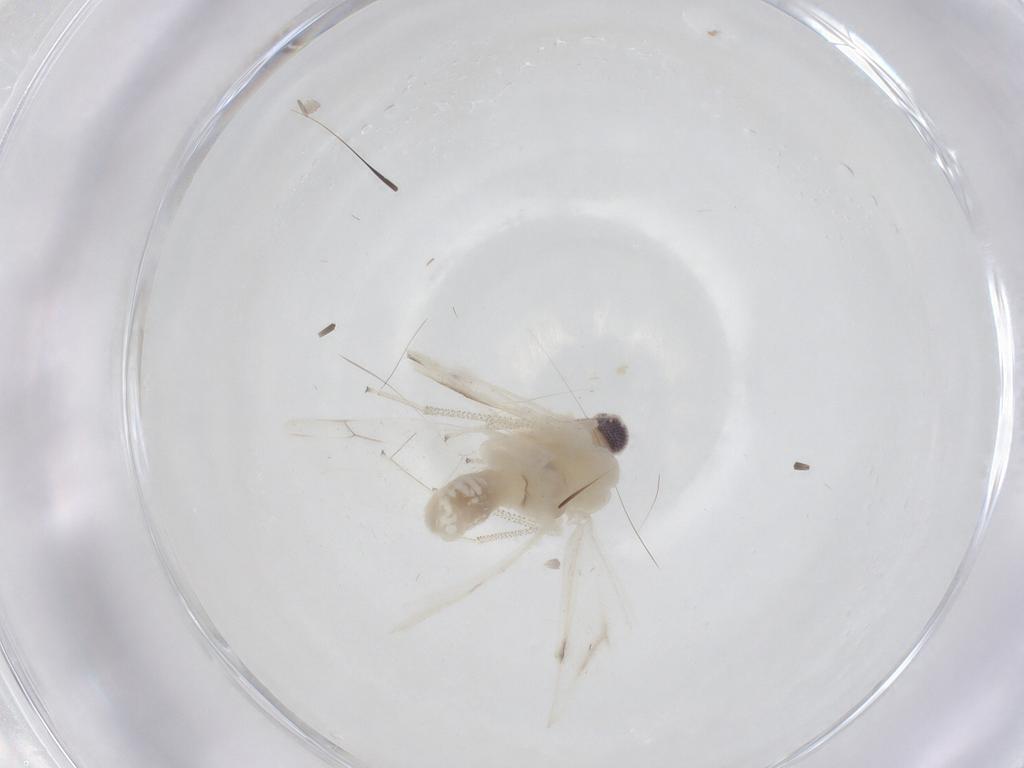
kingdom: Animalia
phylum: Arthropoda
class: Insecta
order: Psocodea
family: Caeciliusidae
